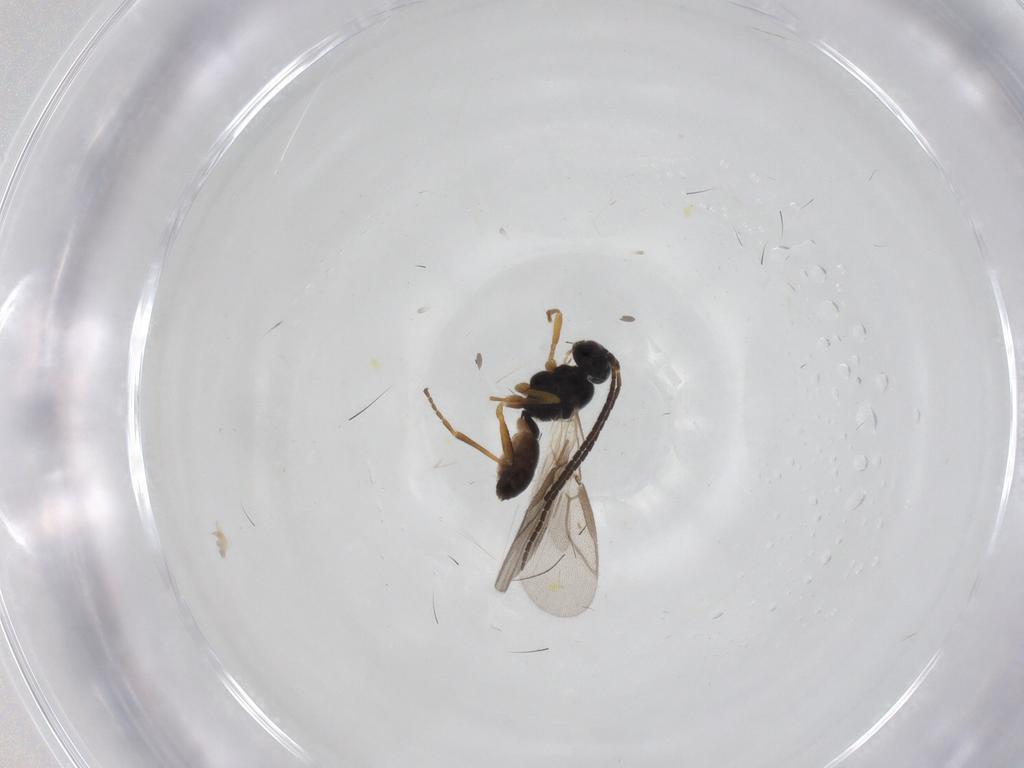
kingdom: Animalia
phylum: Arthropoda
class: Insecta
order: Hymenoptera
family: Braconidae
